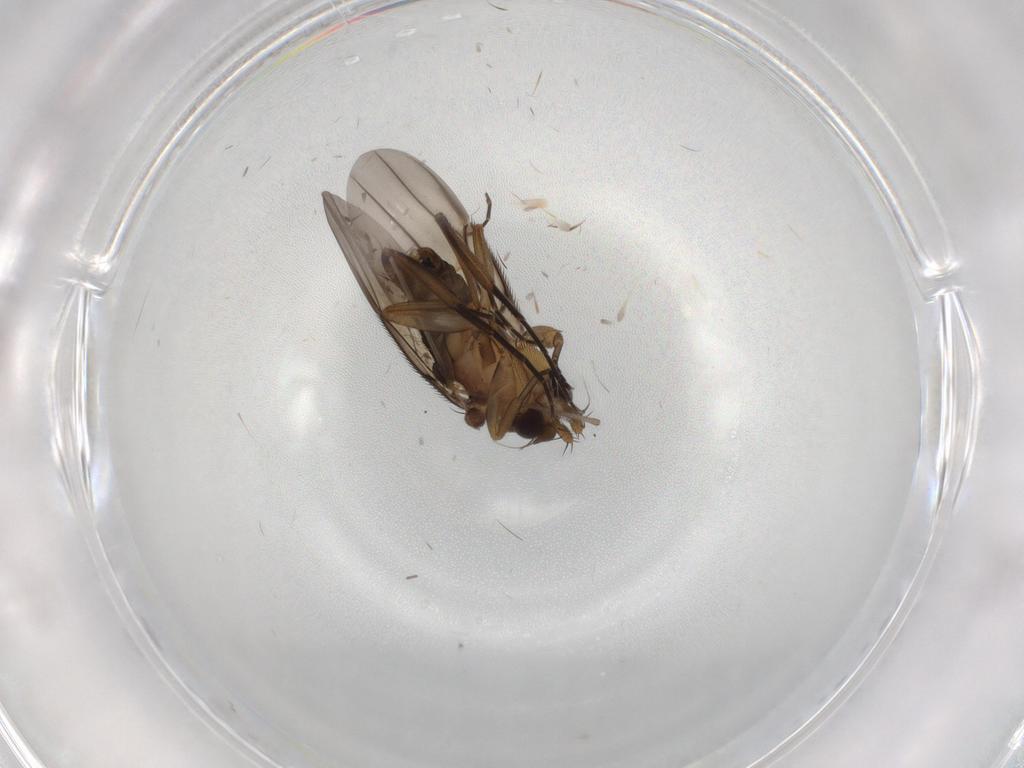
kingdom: Animalia
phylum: Arthropoda
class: Insecta
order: Diptera
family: Cecidomyiidae
